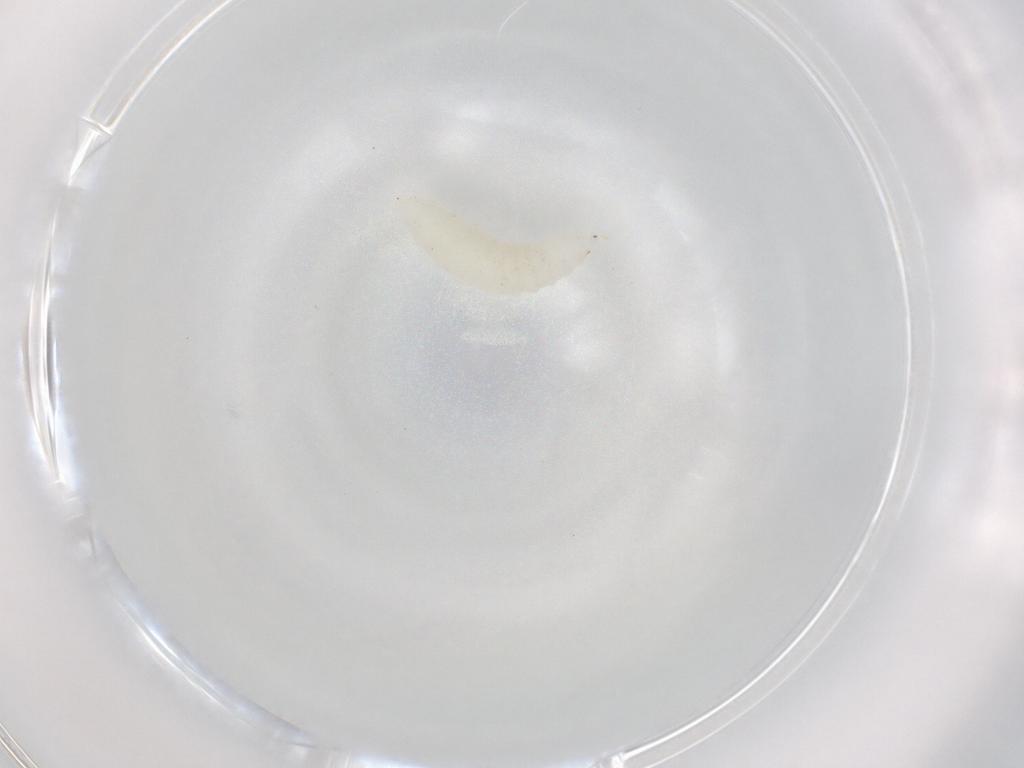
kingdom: Animalia
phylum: Arthropoda
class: Insecta
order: Diptera
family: Cecidomyiidae
